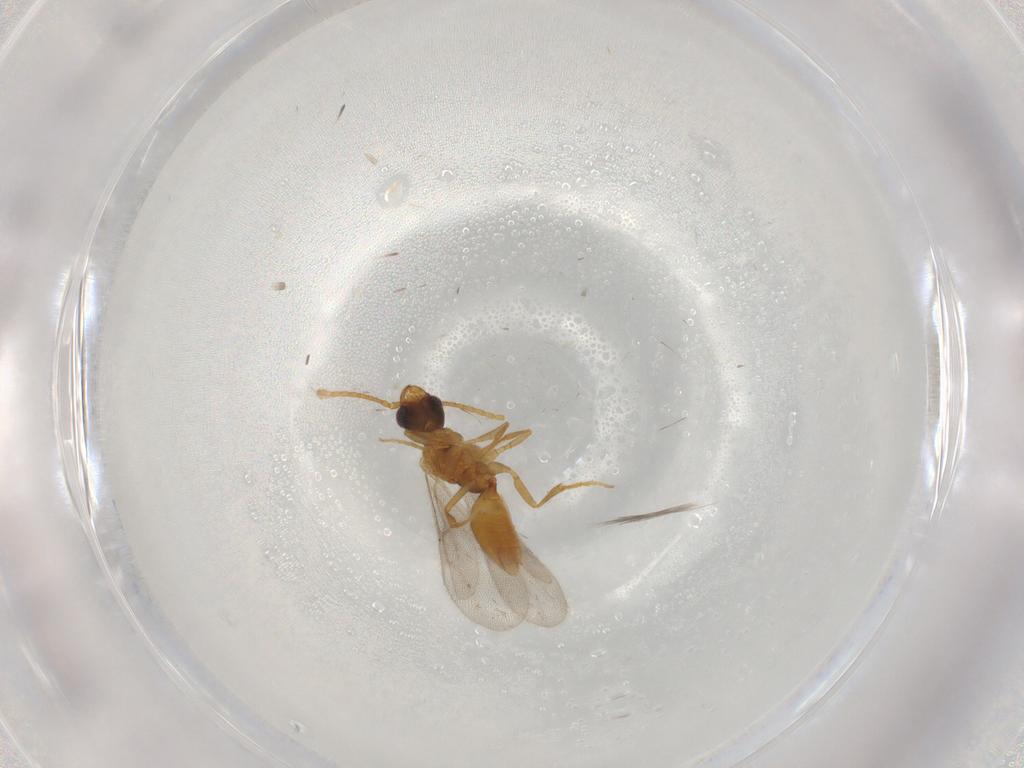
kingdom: Animalia
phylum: Arthropoda
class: Insecta
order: Hymenoptera
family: Bethylidae
